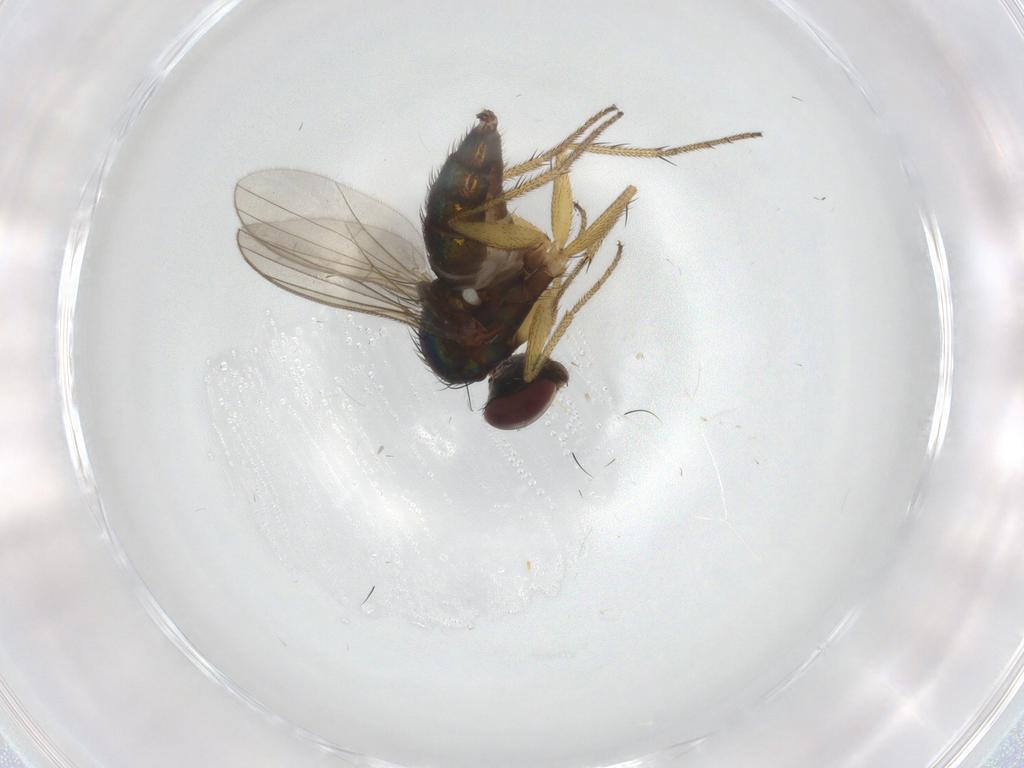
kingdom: Animalia
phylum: Arthropoda
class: Insecta
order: Diptera
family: Dolichopodidae
